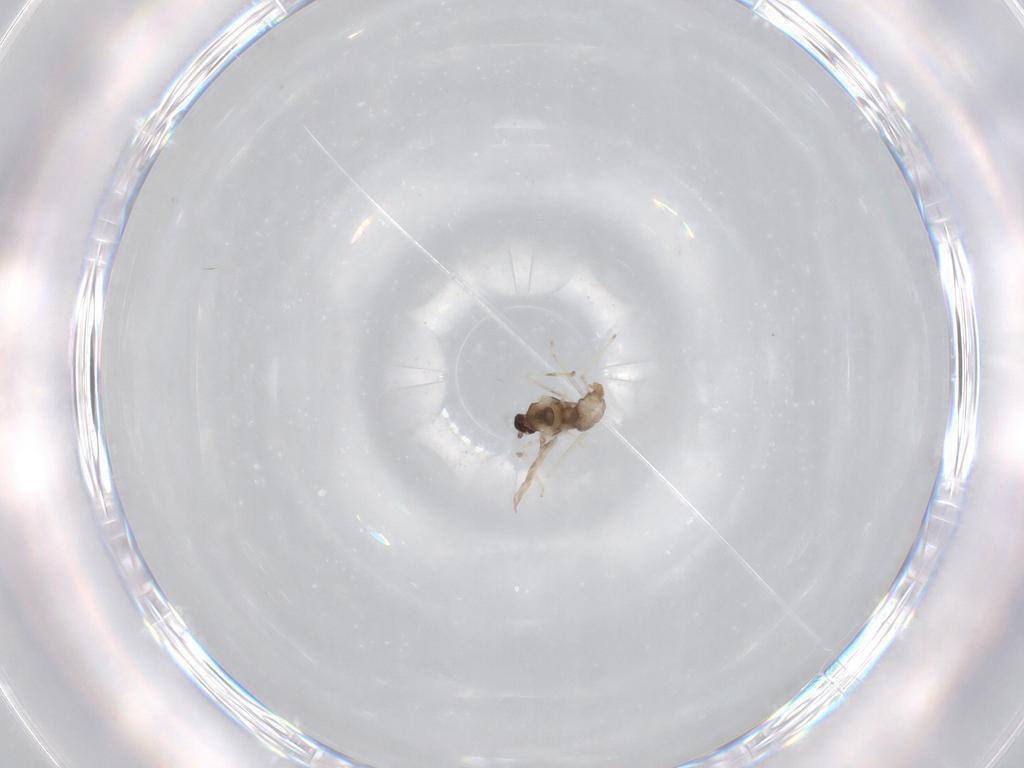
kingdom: Animalia
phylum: Arthropoda
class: Insecta
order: Diptera
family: Cecidomyiidae
